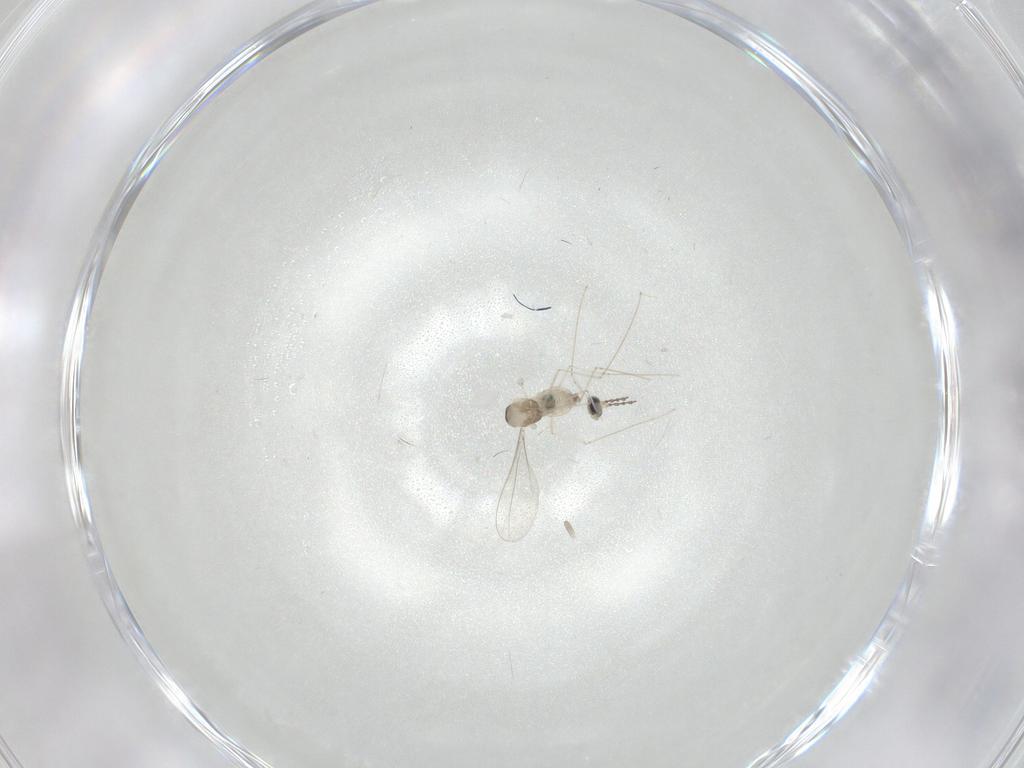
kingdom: Animalia
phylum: Arthropoda
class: Insecta
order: Diptera
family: Cecidomyiidae
